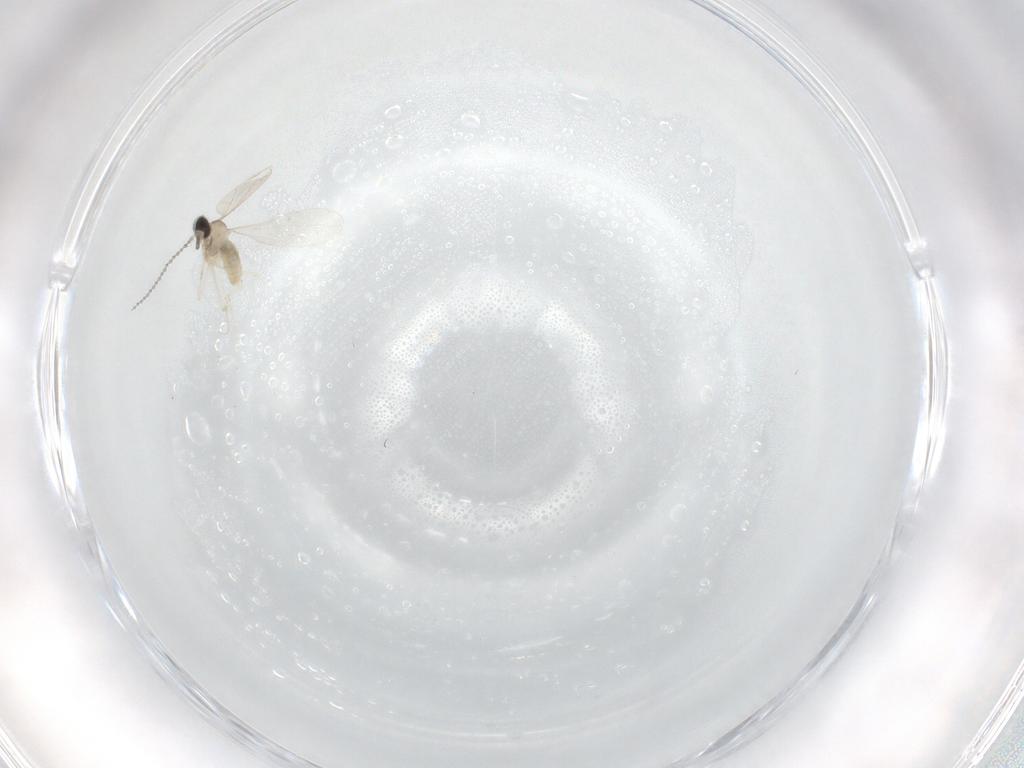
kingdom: Animalia
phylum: Arthropoda
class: Insecta
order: Diptera
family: Cecidomyiidae
